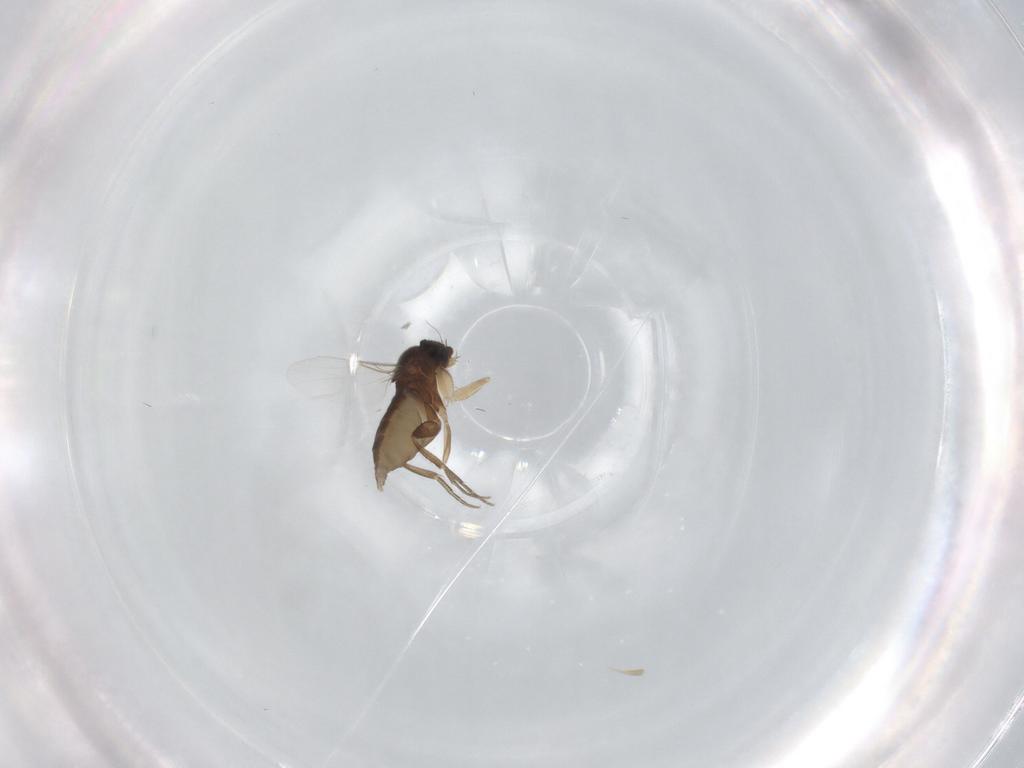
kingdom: Animalia
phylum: Arthropoda
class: Insecta
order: Diptera
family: Phoridae
